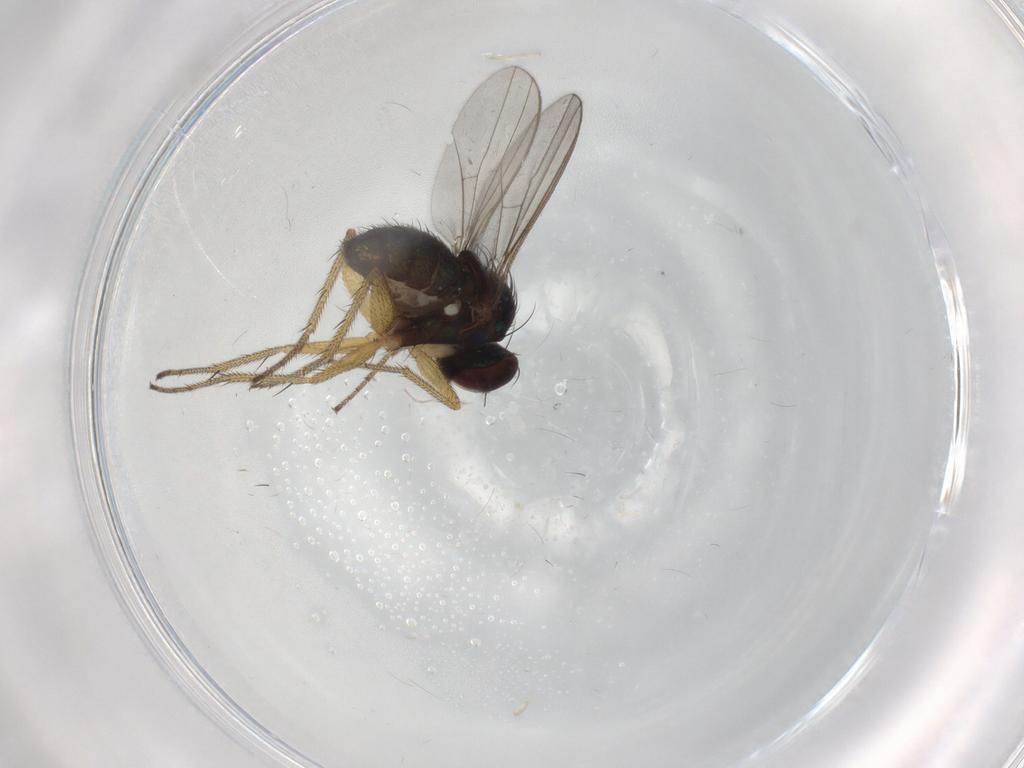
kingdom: Animalia
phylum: Arthropoda
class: Insecta
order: Diptera
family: Dolichopodidae
